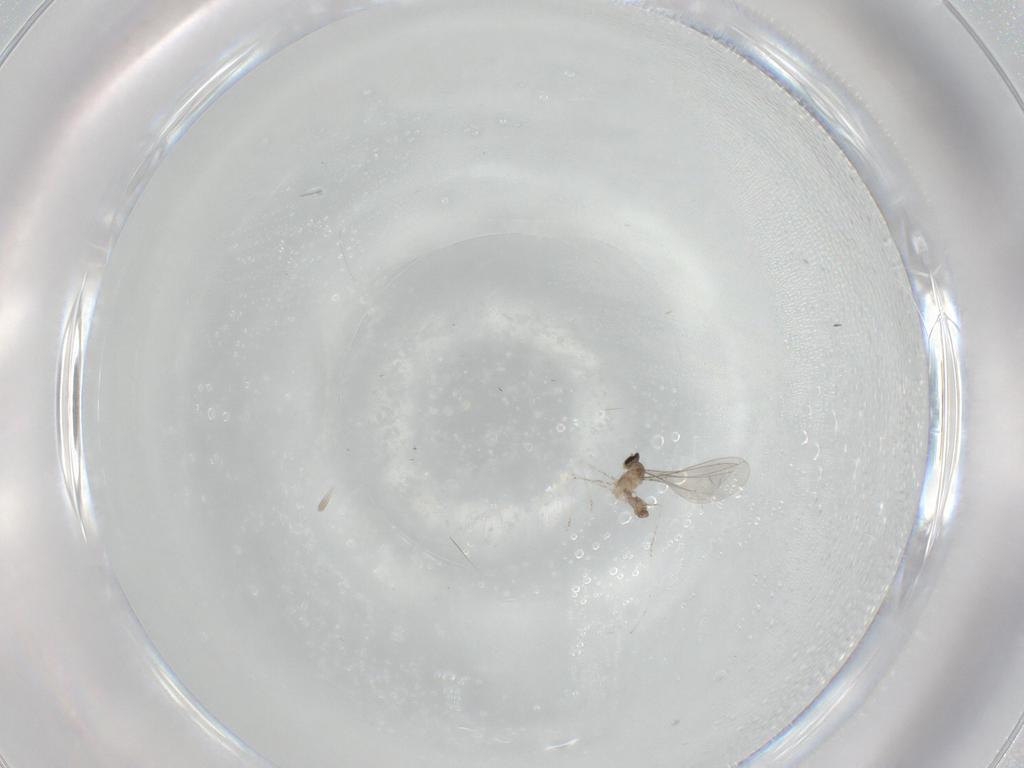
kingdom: Animalia
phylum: Arthropoda
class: Insecta
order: Diptera
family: Cecidomyiidae
